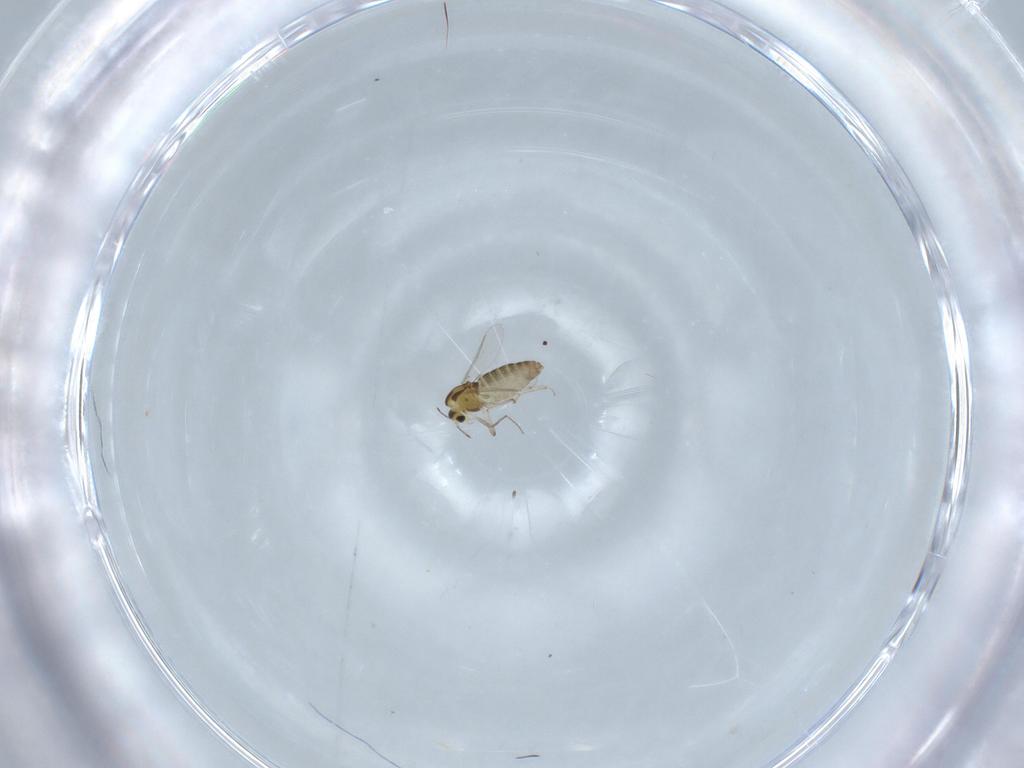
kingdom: Animalia
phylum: Arthropoda
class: Insecta
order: Diptera
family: Chironomidae
